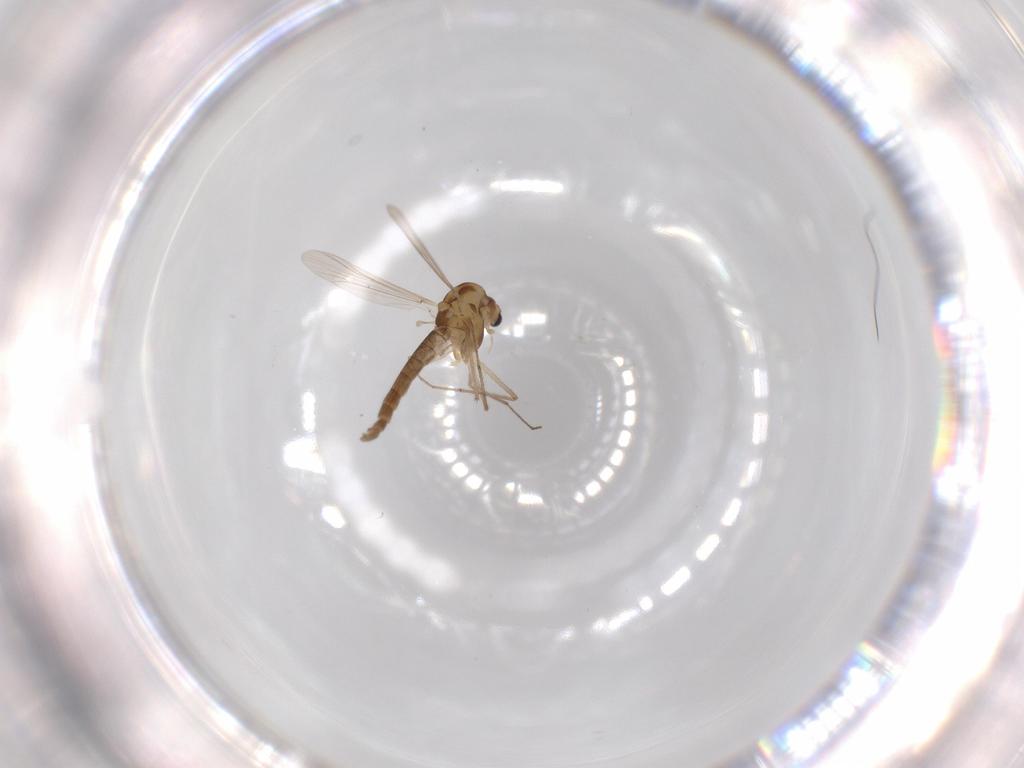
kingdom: Animalia
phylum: Arthropoda
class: Insecta
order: Diptera
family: Chironomidae
